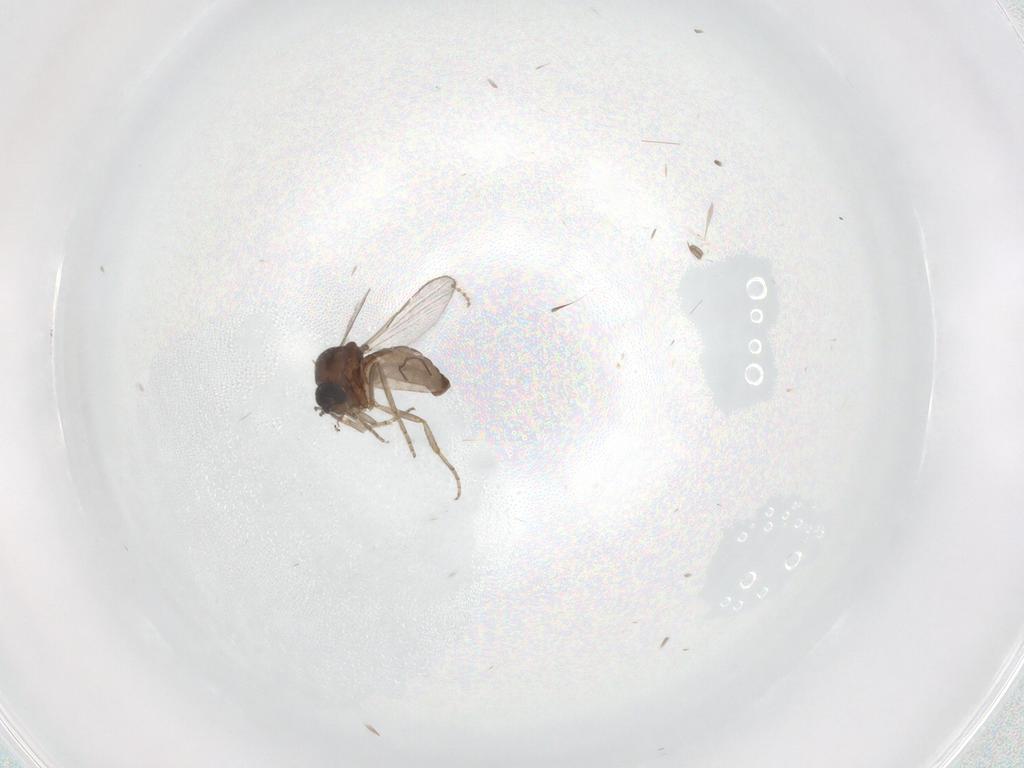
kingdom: Animalia
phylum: Arthropoda
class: Insecta
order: Diptera
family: Ceratopogonidae
